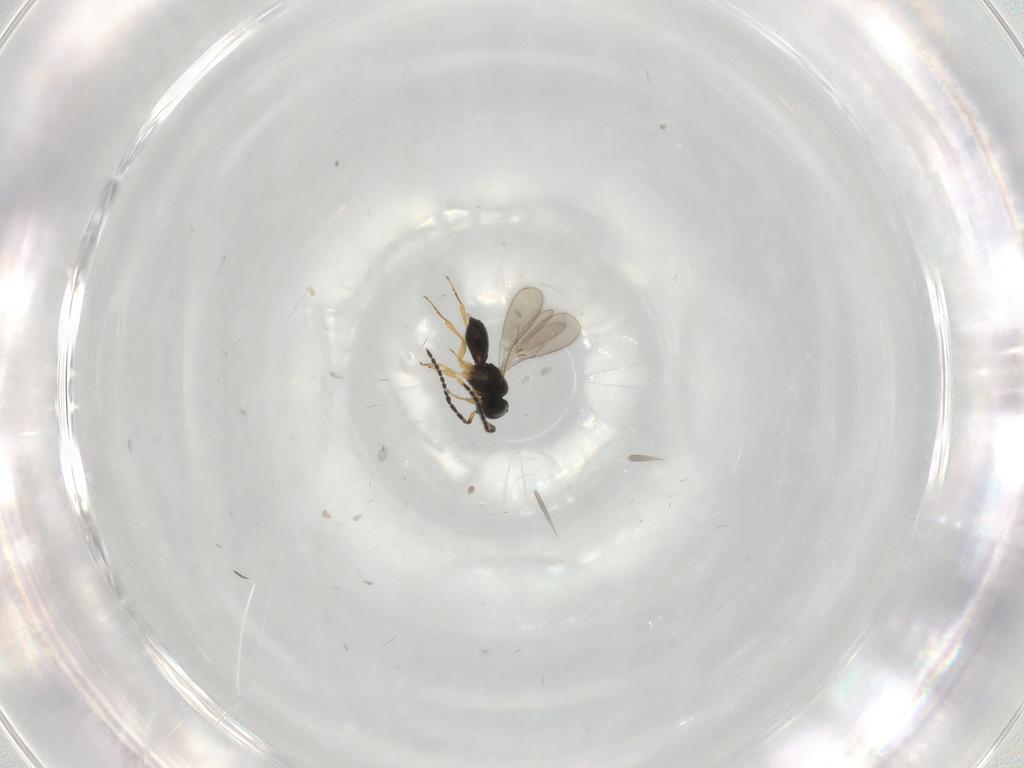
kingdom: Animalia
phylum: Arthropoda
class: Insecta
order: Hymenoptera
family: Scelionidae
